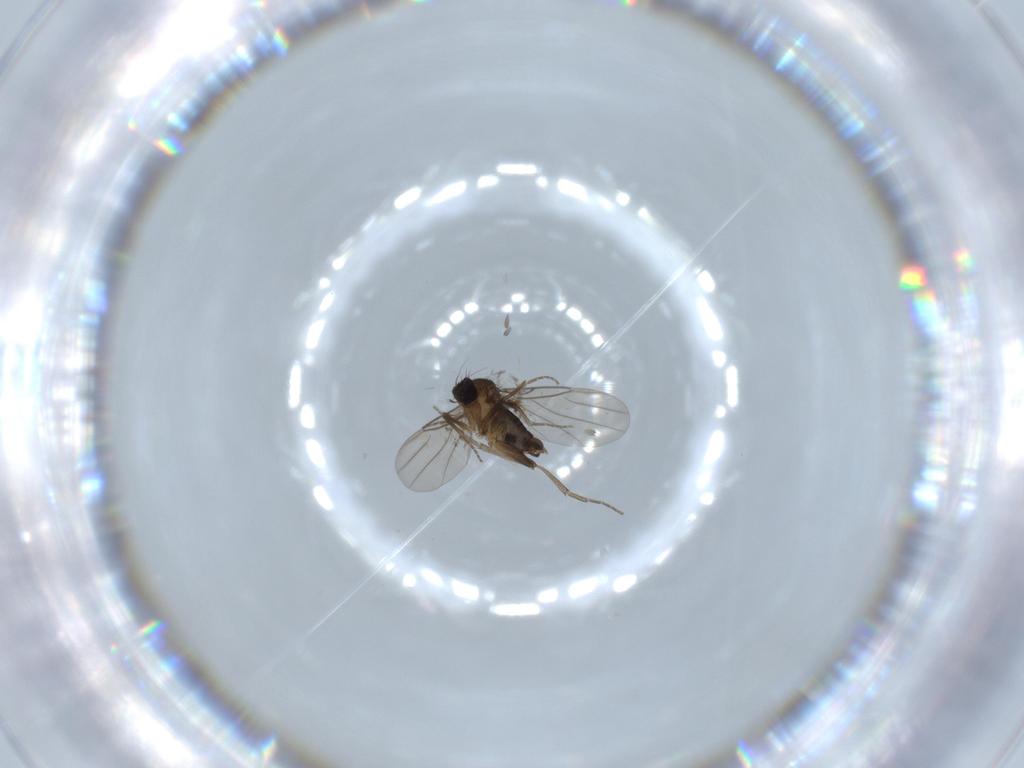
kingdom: Animalia
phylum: Arthropoda
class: Insecta
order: Diptera
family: Phoridae
